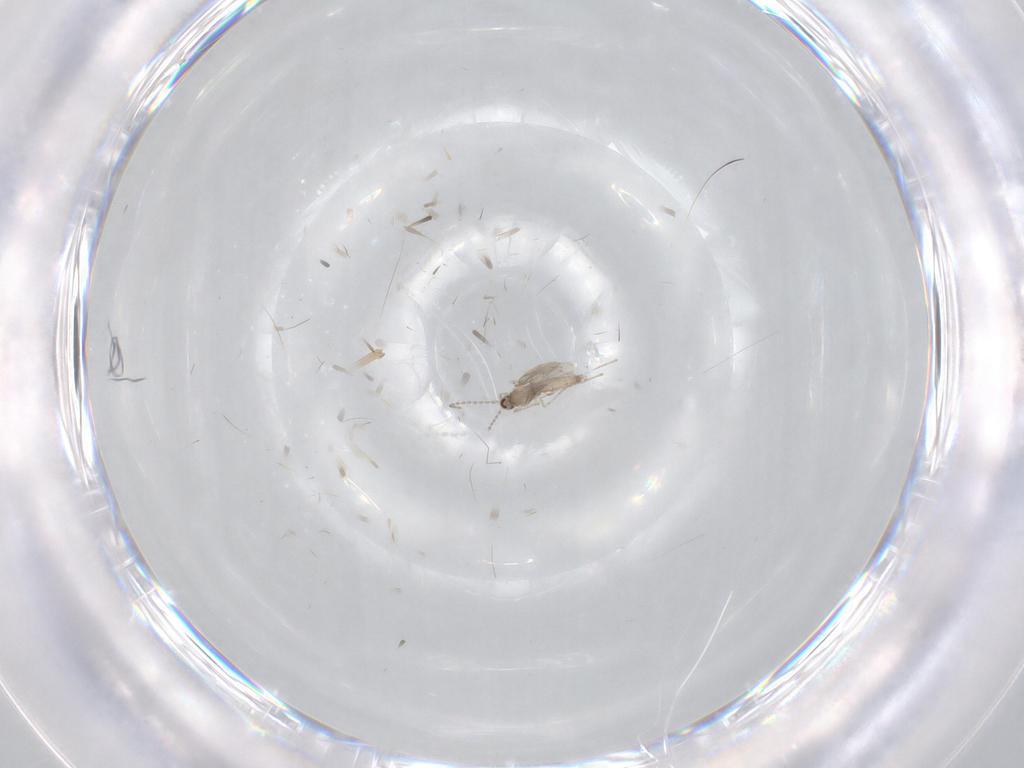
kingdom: Animalia
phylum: Arthropoda
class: Insecta
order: Diptera
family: Cecidomyiidae
